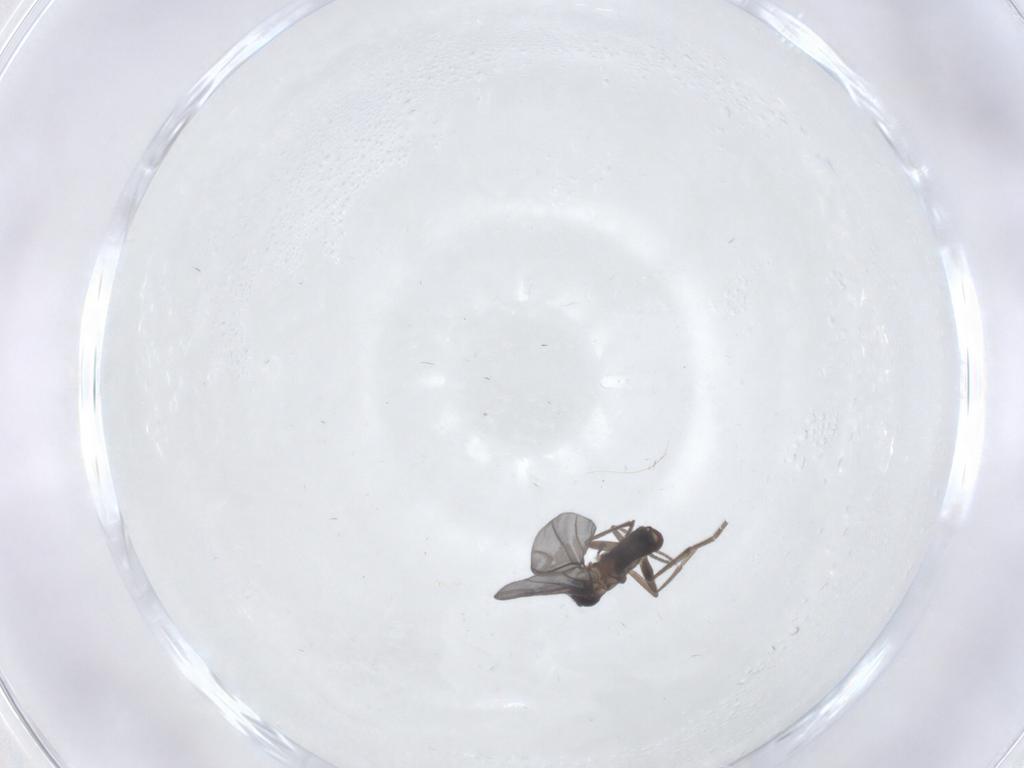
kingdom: Animalia
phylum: Arthropoda
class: Insecta
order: Diptera
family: Phoridae
